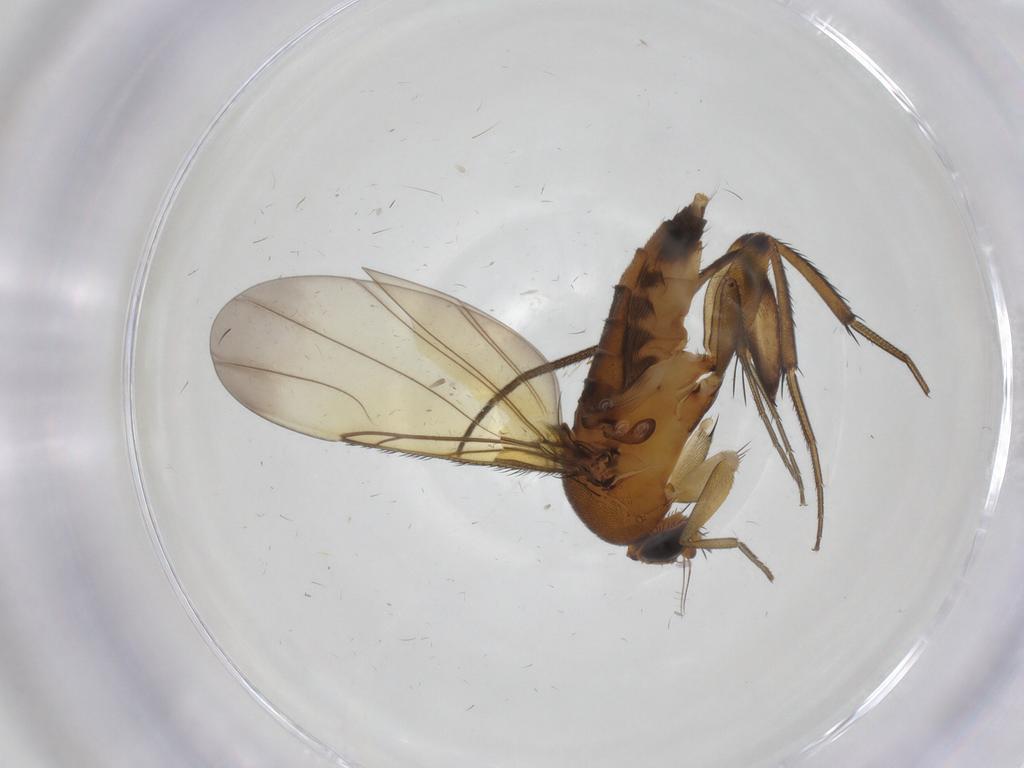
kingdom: Animalia
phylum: Arthropoda
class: Insecta
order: Diptera
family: Phoridae
